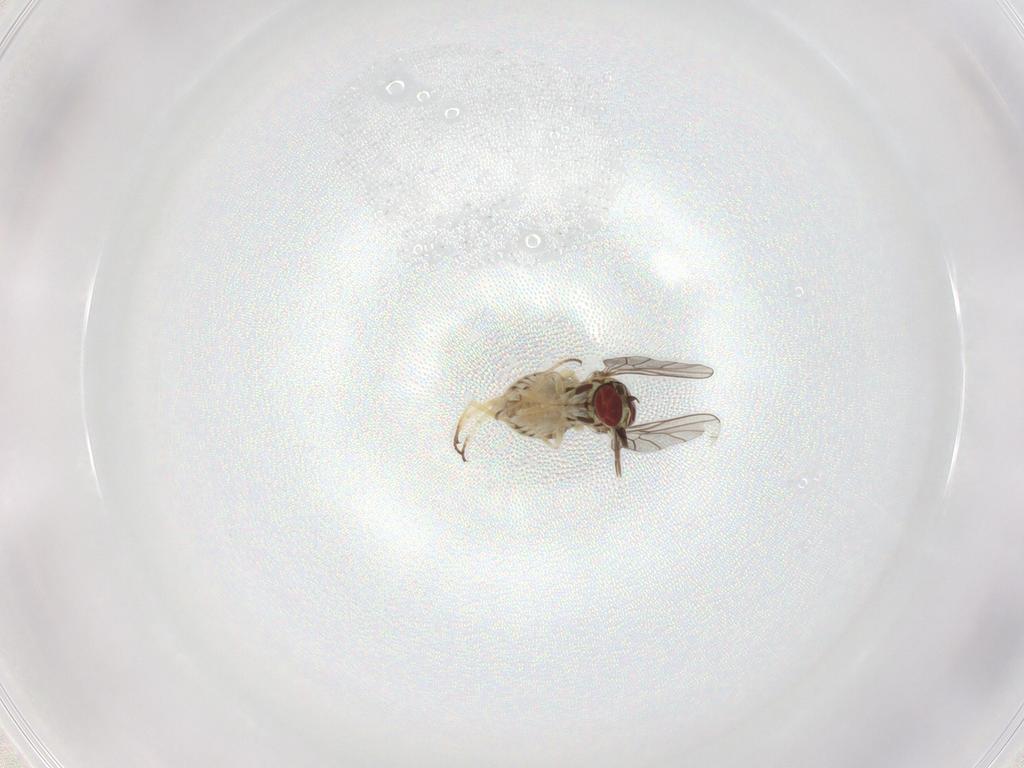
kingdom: Animalia
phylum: Arthropoda
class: Insecta
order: Diptera
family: Bombyliidae
